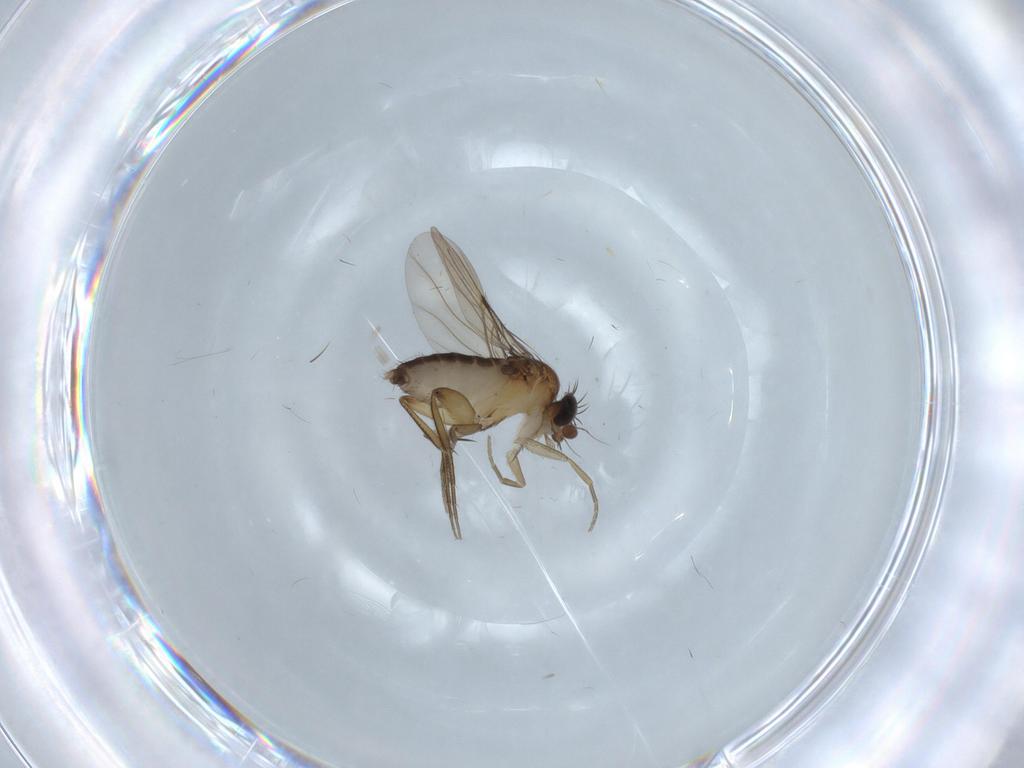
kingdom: Animalia
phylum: Arthropoda
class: Insecta
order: Diptera
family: Phoridae
